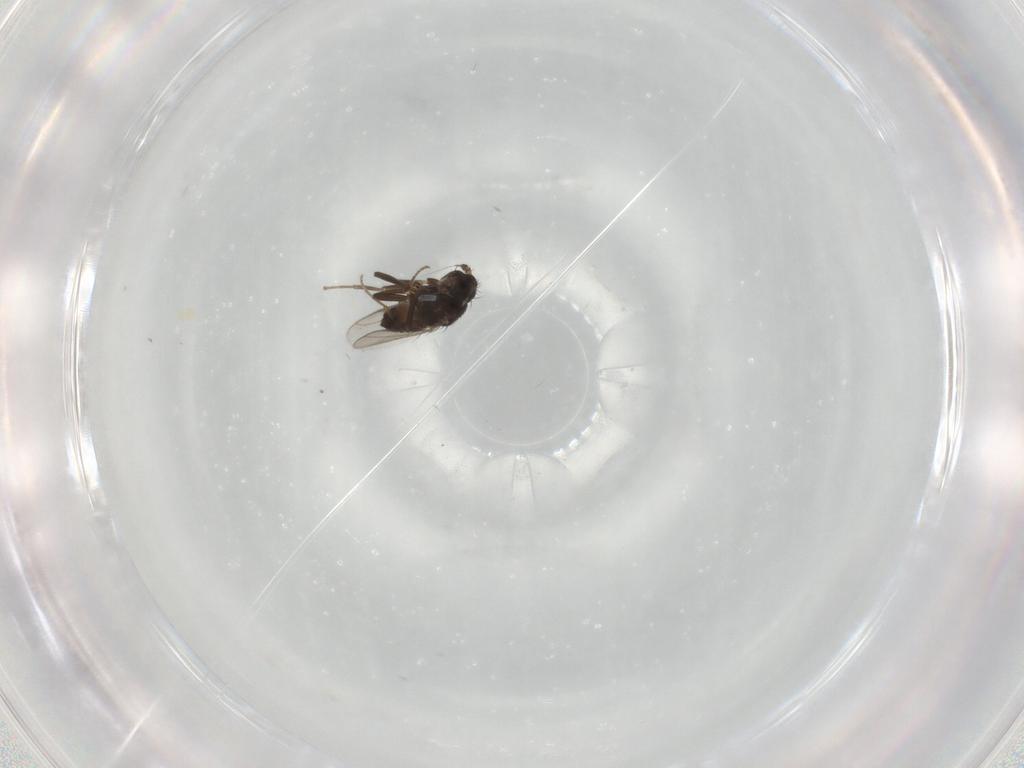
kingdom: Animalia
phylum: Arthropoda
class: Insecta
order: Diptera
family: Sphaeroceridae
